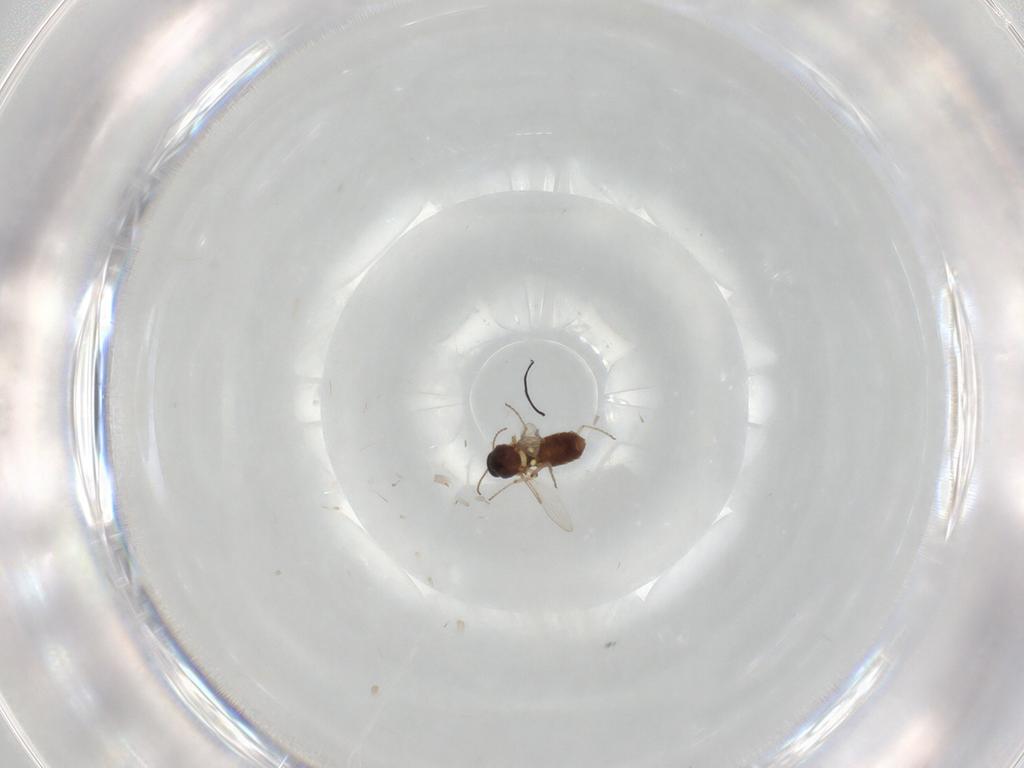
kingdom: Animalia
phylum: Arthropoda
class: Insecta
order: Diptera
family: Ceratopogonidae
